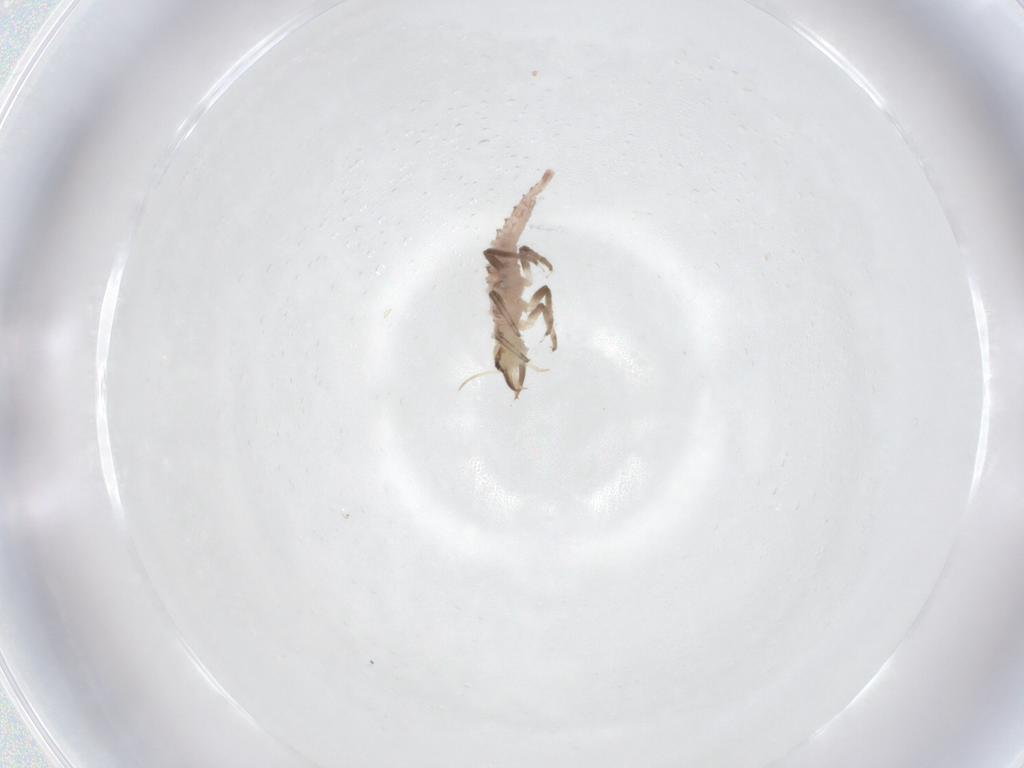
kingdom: Animalia
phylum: Arthropoda
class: Insecta
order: Neuroptera
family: Chrysopidae
